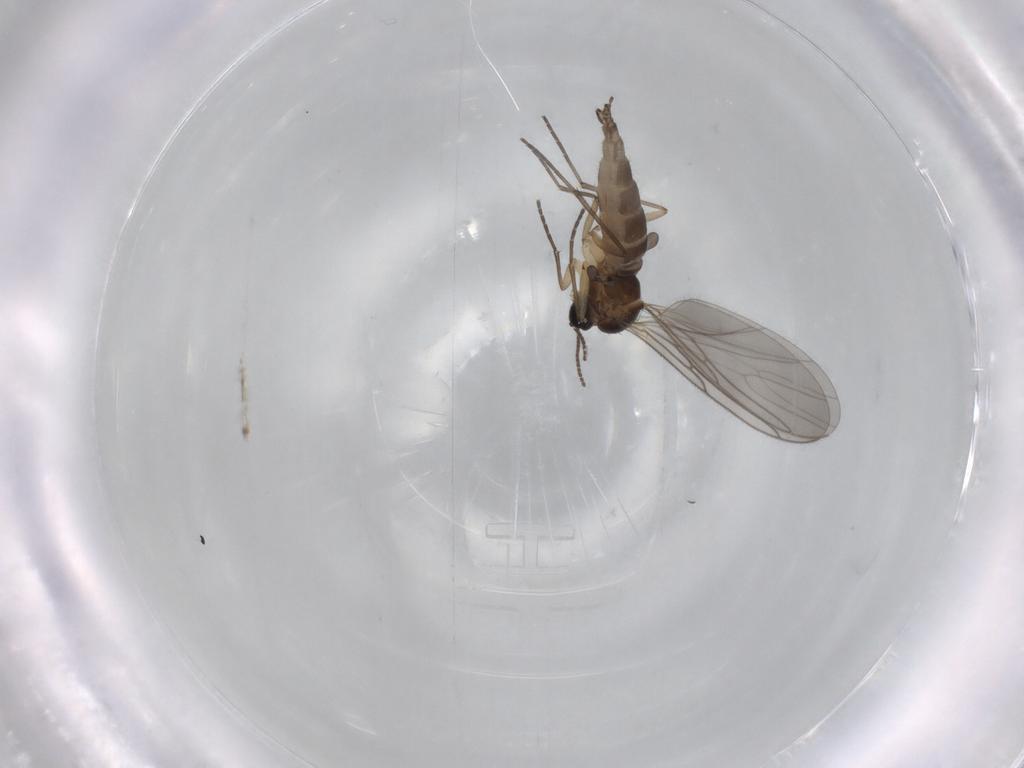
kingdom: Animalia
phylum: Arthropoda
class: Insecta
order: Diptera
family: Sciaridae
